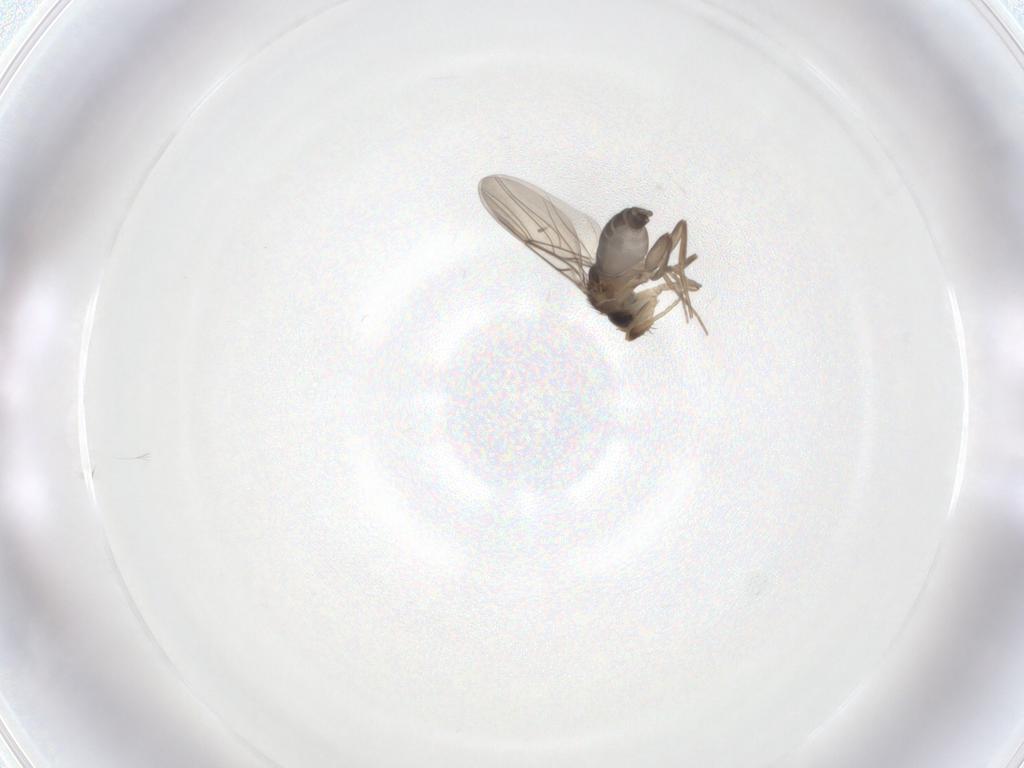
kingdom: Animalia
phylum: Arthropoda
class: Insecta
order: Diptera
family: Phoridae
